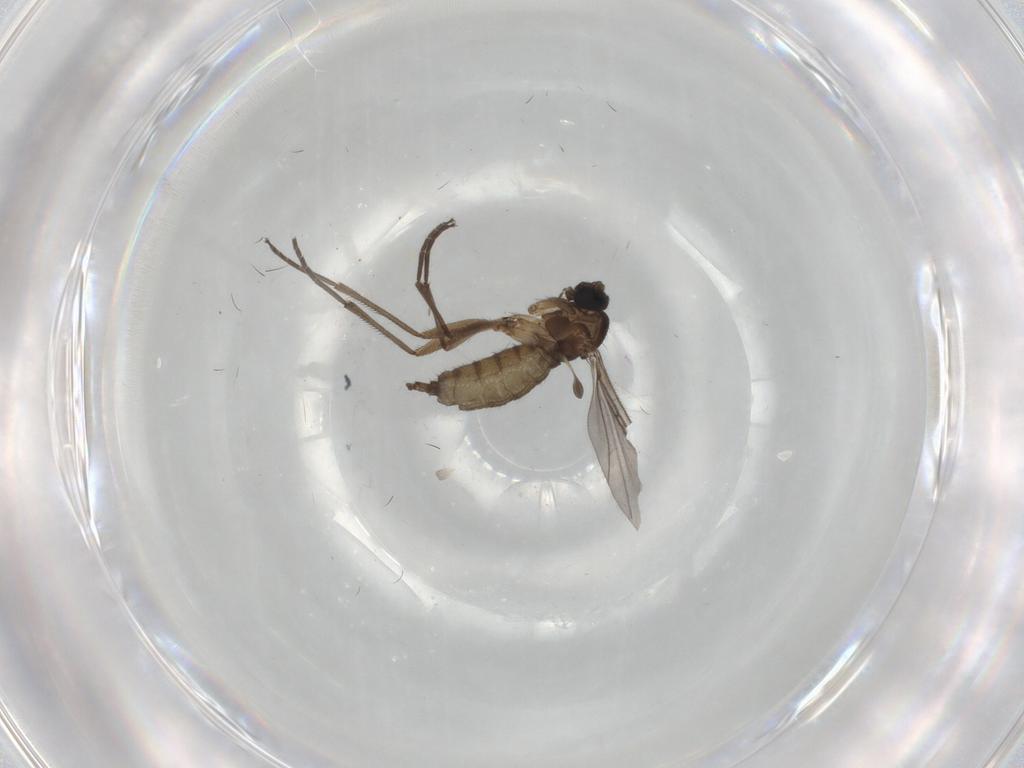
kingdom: Animalia
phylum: Arthropoda
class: Insecta
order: Diptera
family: Sciaridae
